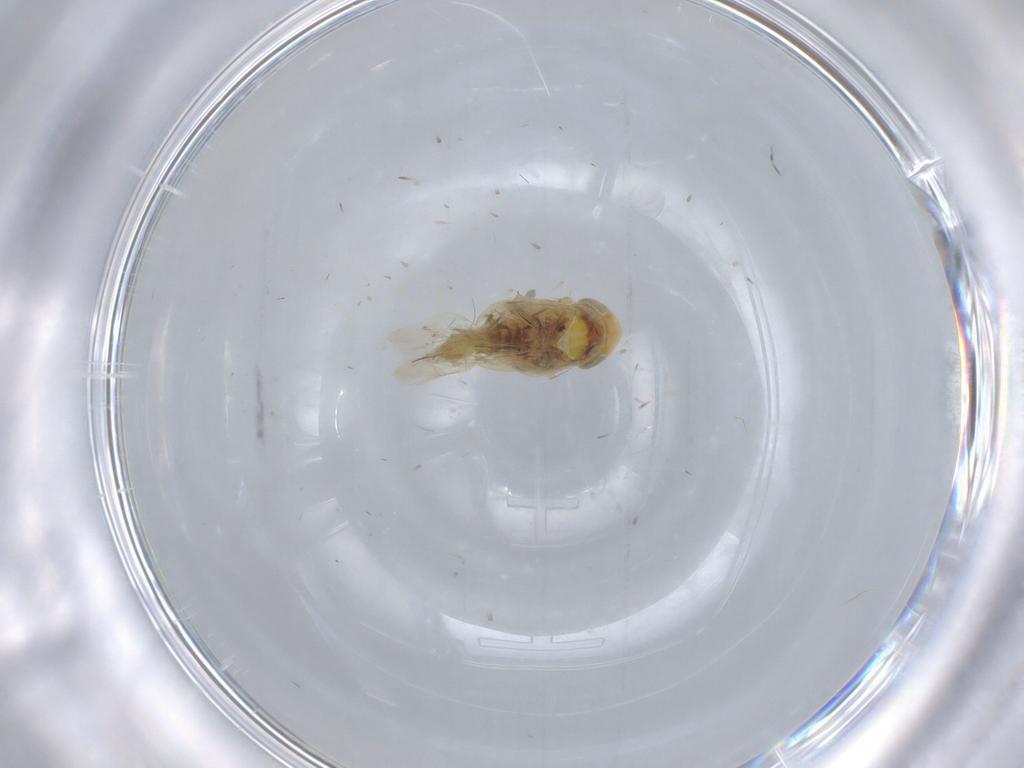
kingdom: Animalia
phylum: Arthropoda
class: Insecta
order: Hemiptera
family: Cicadellidae
